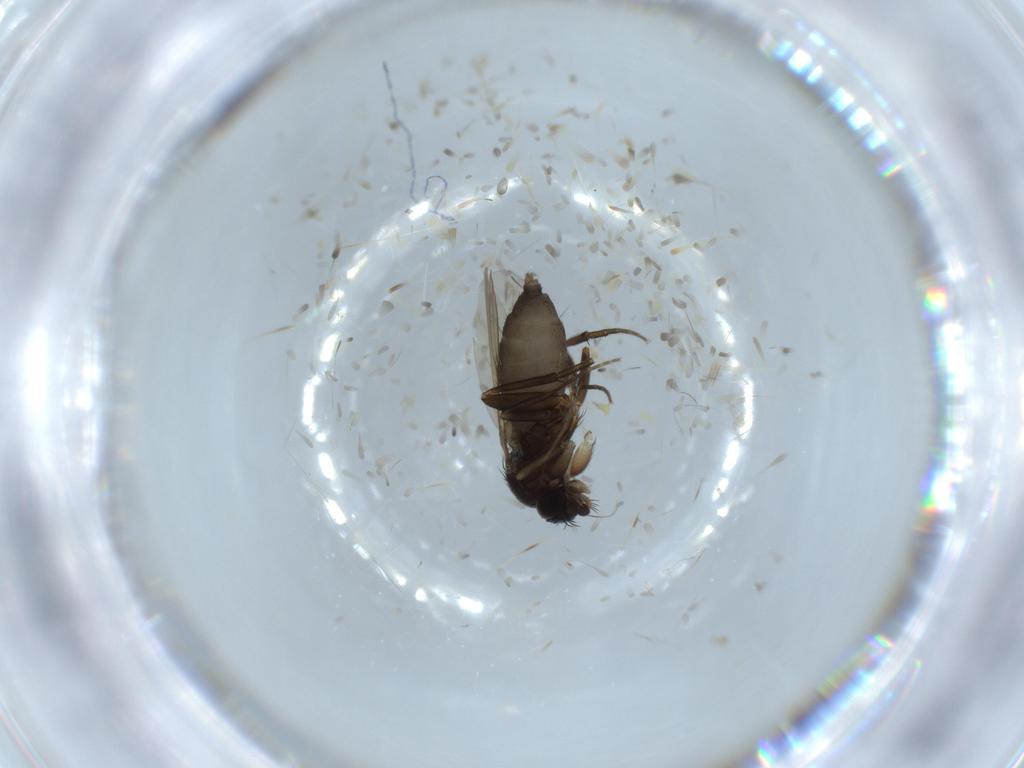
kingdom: Animalia
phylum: Arthropoda
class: Insecta
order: Diptera
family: Phoridae
